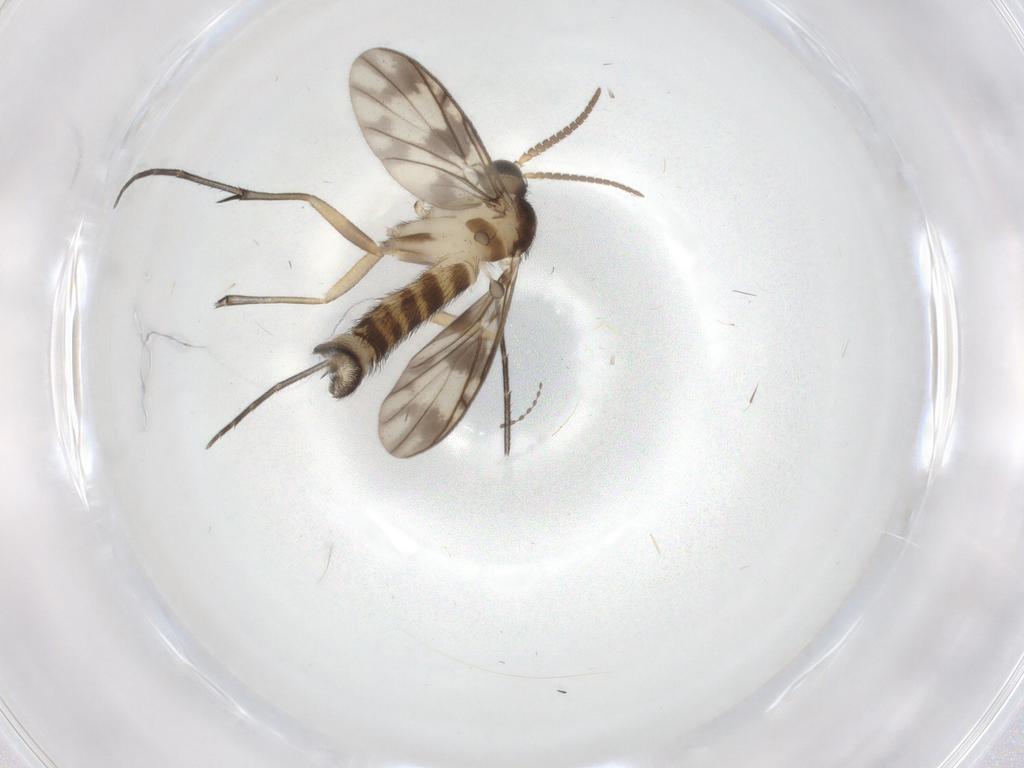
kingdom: Animalia
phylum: Arthropoda
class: Insecta
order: Diptera
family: Keroplatidae
